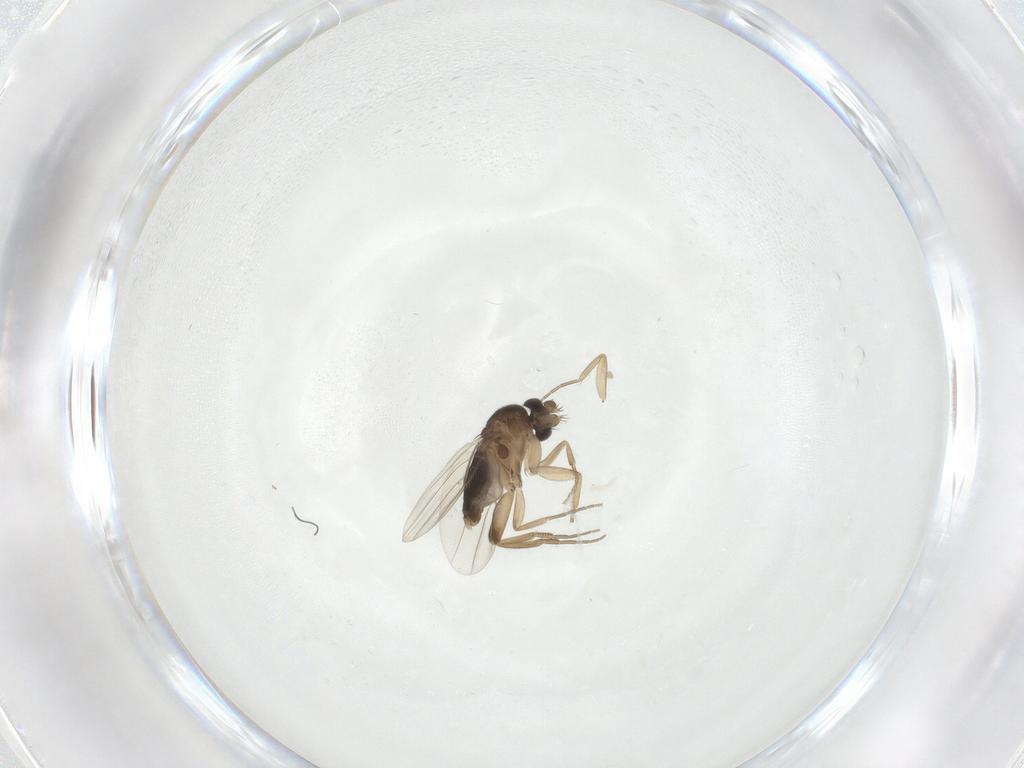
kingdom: Animalia
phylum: Arthropoda
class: Insecta
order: Diptera
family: Phoridae
